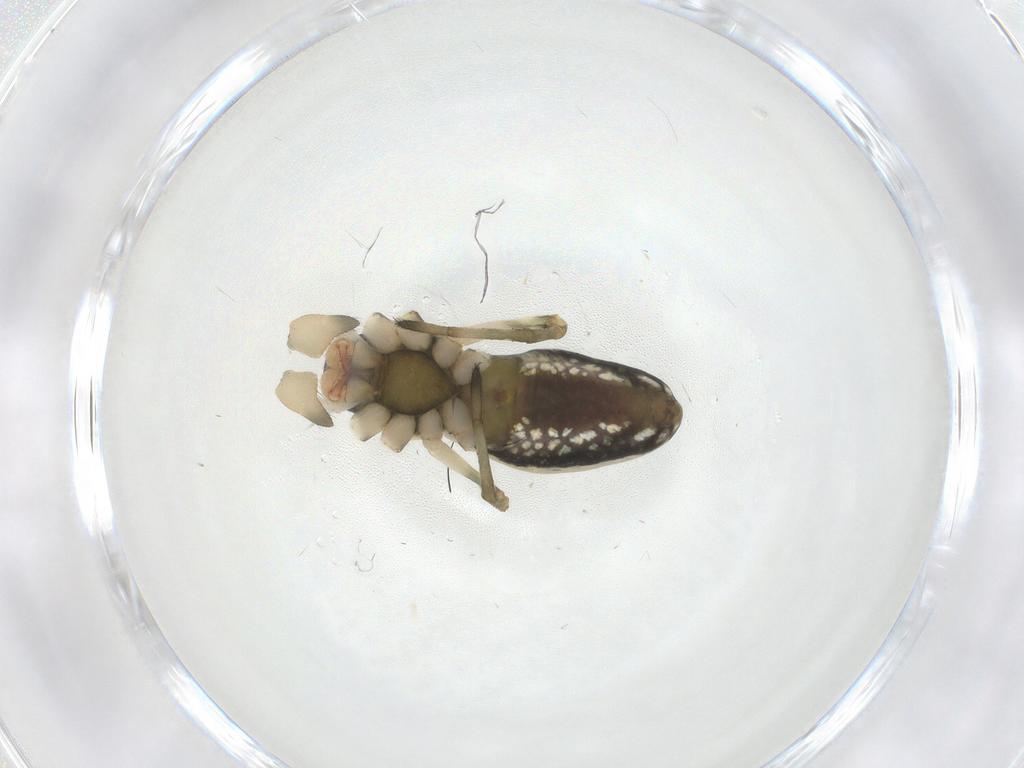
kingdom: Animalia
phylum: Arthropoda
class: Arachnida
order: Araneae
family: Tetragnathidae
